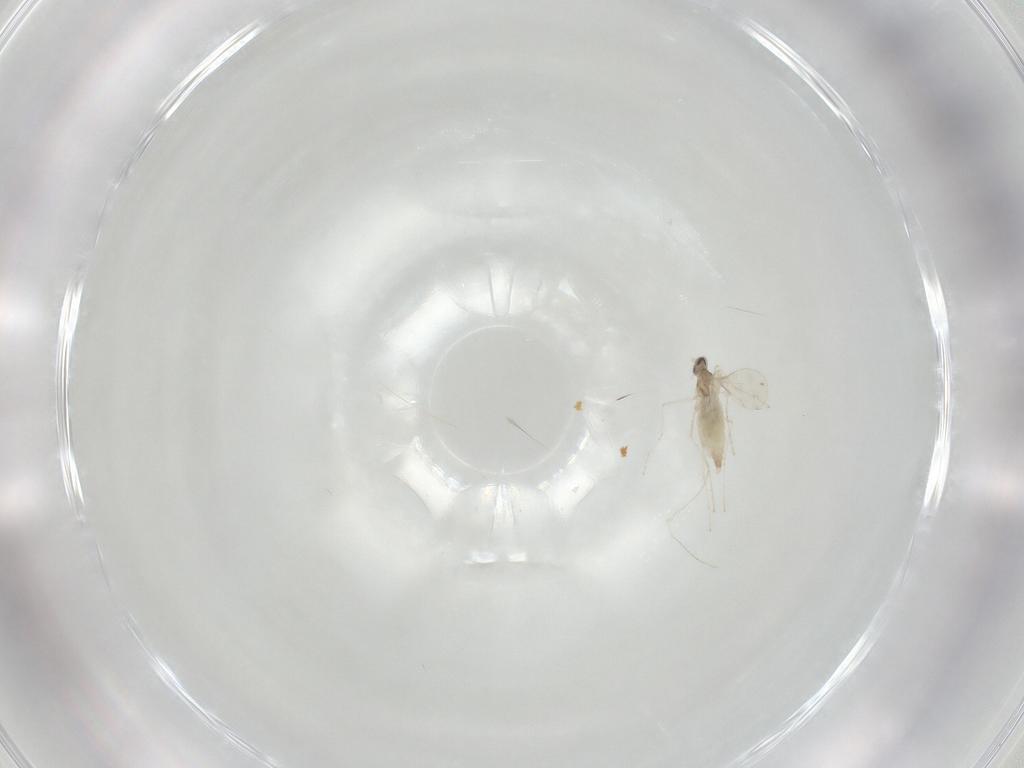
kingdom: Animalia
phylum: Arthropoda
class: Insecta
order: Diptera
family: Cecidomyiidae
